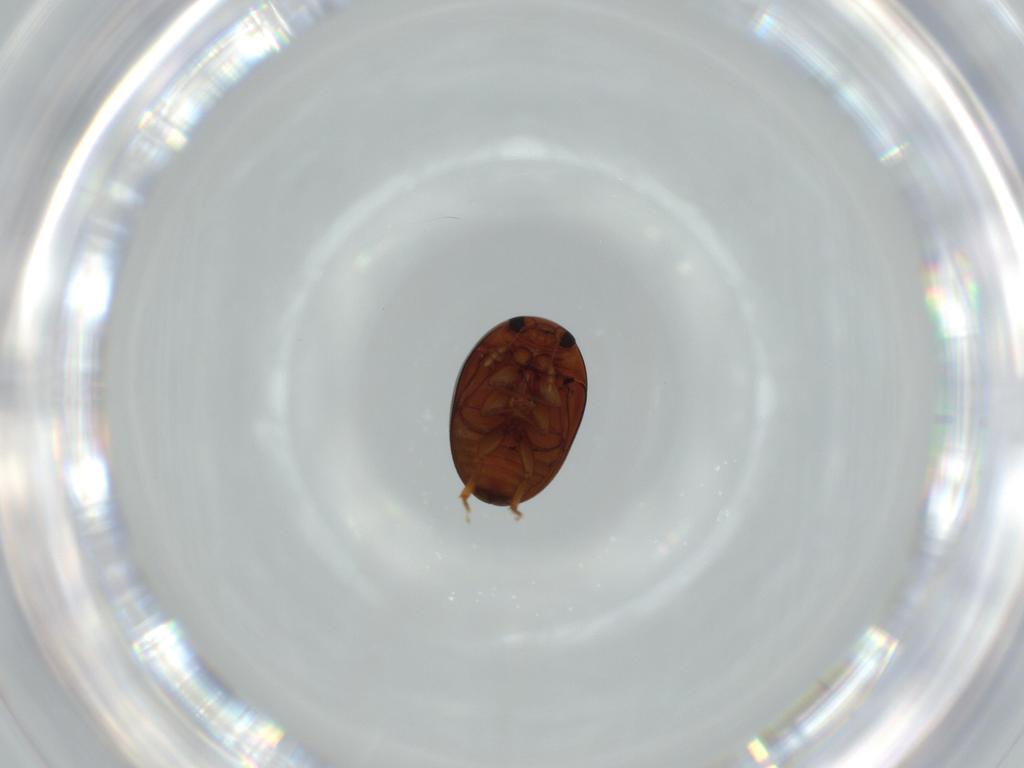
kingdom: Animalia
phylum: Arthropoda
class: Insecta
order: Coleoptera
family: Phalacridae
